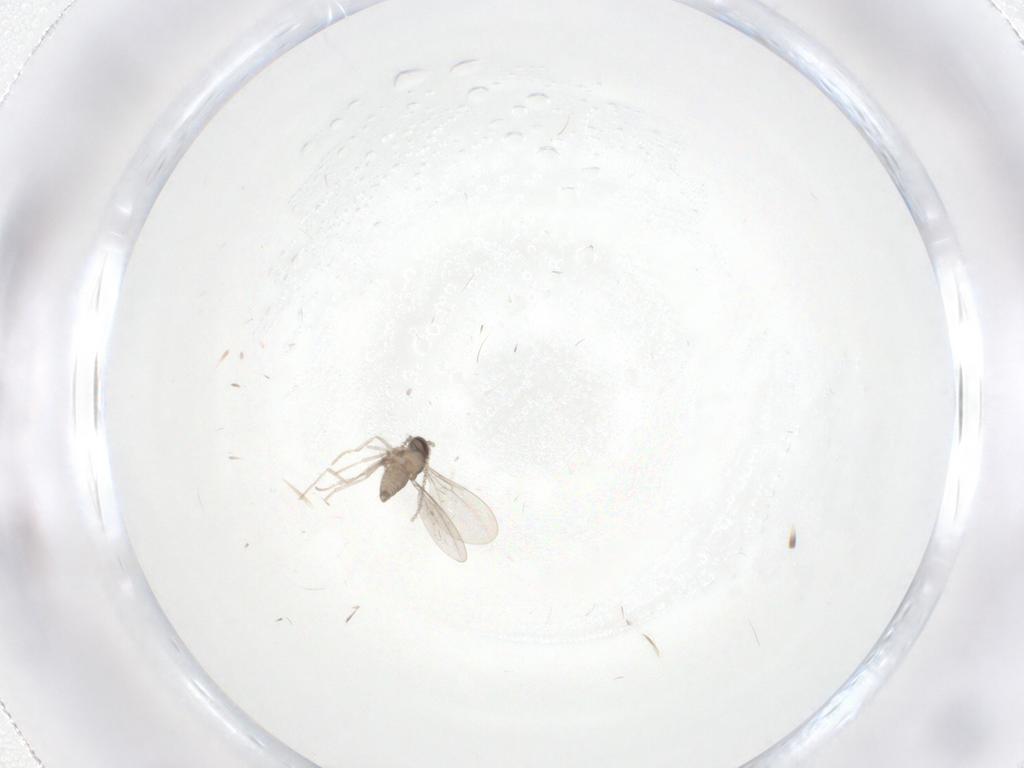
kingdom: Animalia
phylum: Arthropoda
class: Insecta
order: Diptera
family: Cecidomyiidae
